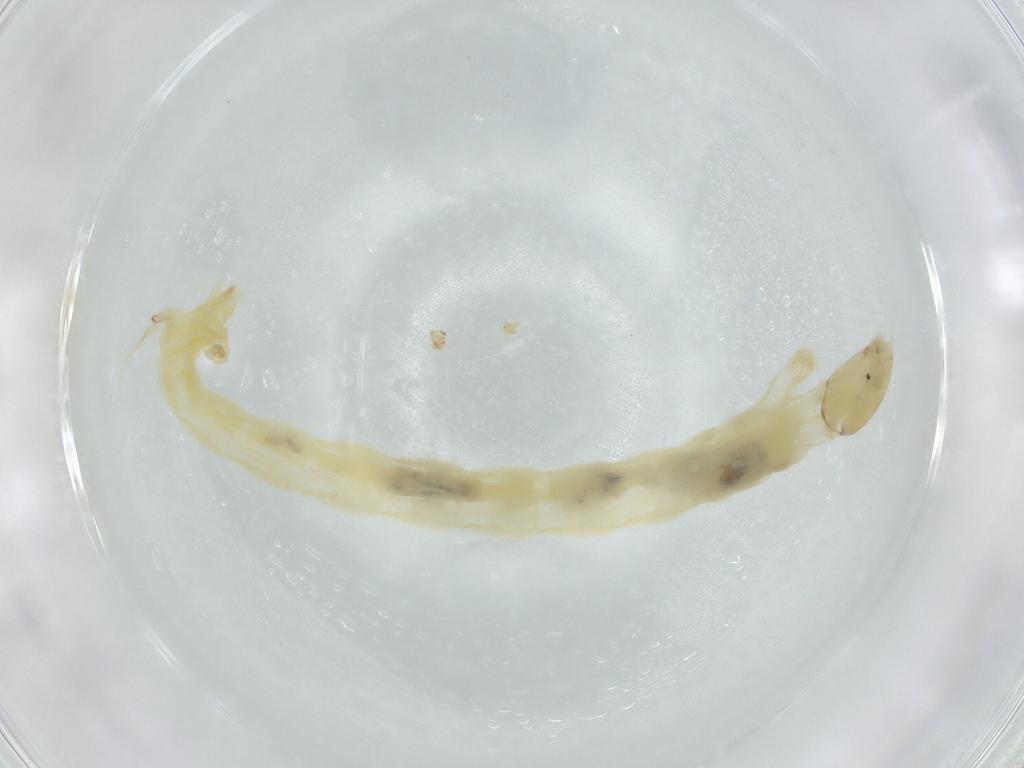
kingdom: Animalia
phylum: Arthropoda
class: Insecta
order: Diptera
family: Chironomidae
